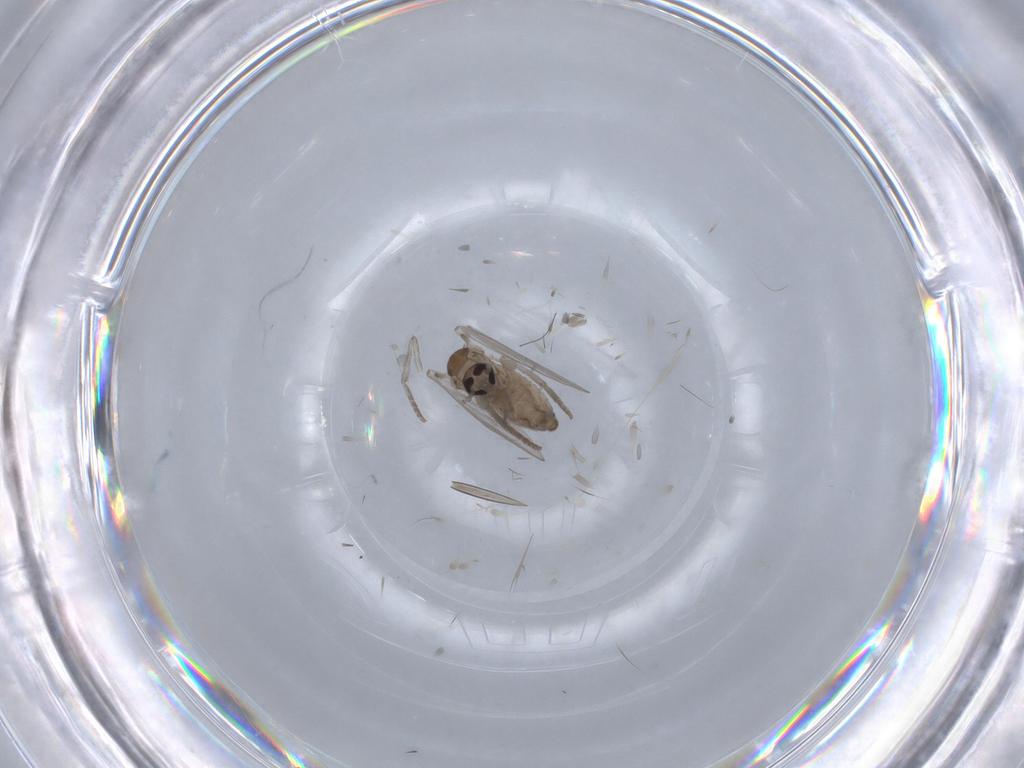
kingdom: Animalia
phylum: Arthropoda
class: Insecta
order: Diptera
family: Psychodidae
